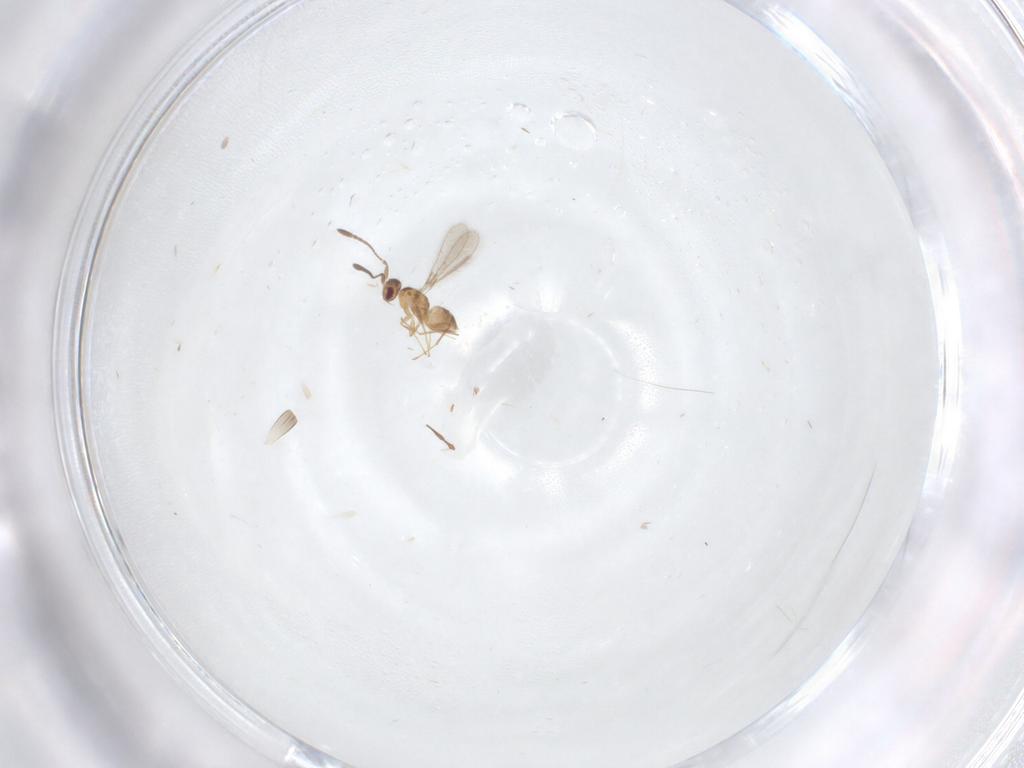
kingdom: Animalia
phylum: Arthropoda
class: Insecta
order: Hymenoptera
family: Mymaridae
